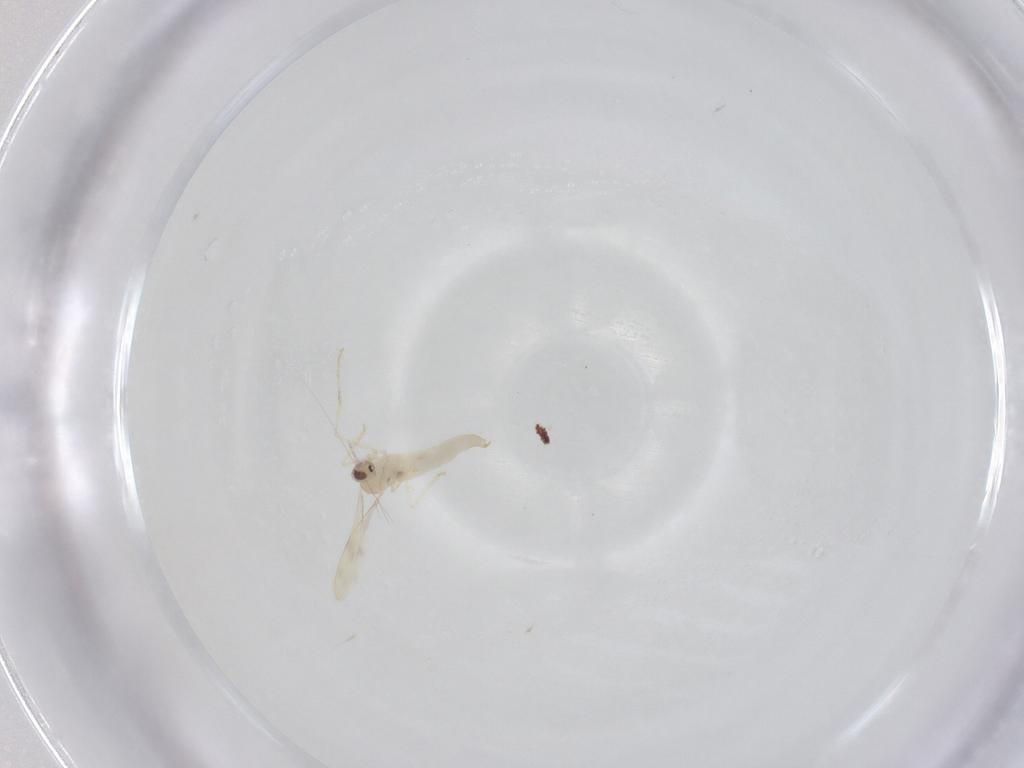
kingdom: Animalia
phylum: Arthropoda
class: Insecta
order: Diptera
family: Cecidomyiidae
